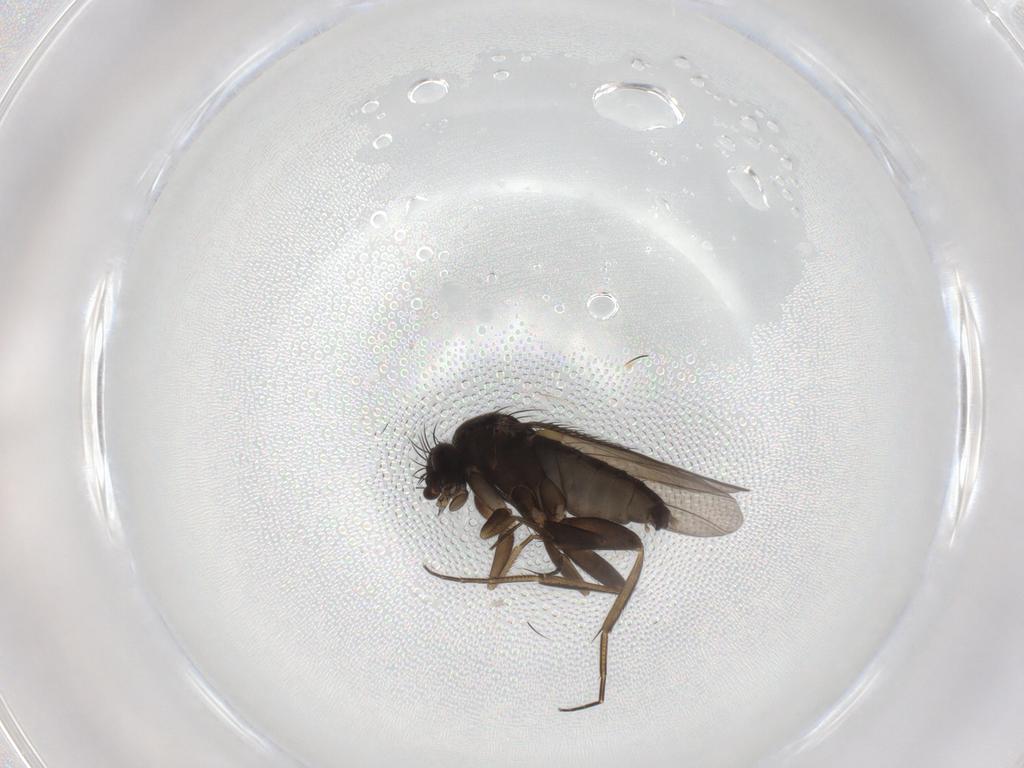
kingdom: Animalia
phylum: Arthropoda
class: Insecta
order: Diptera
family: Phoridae
